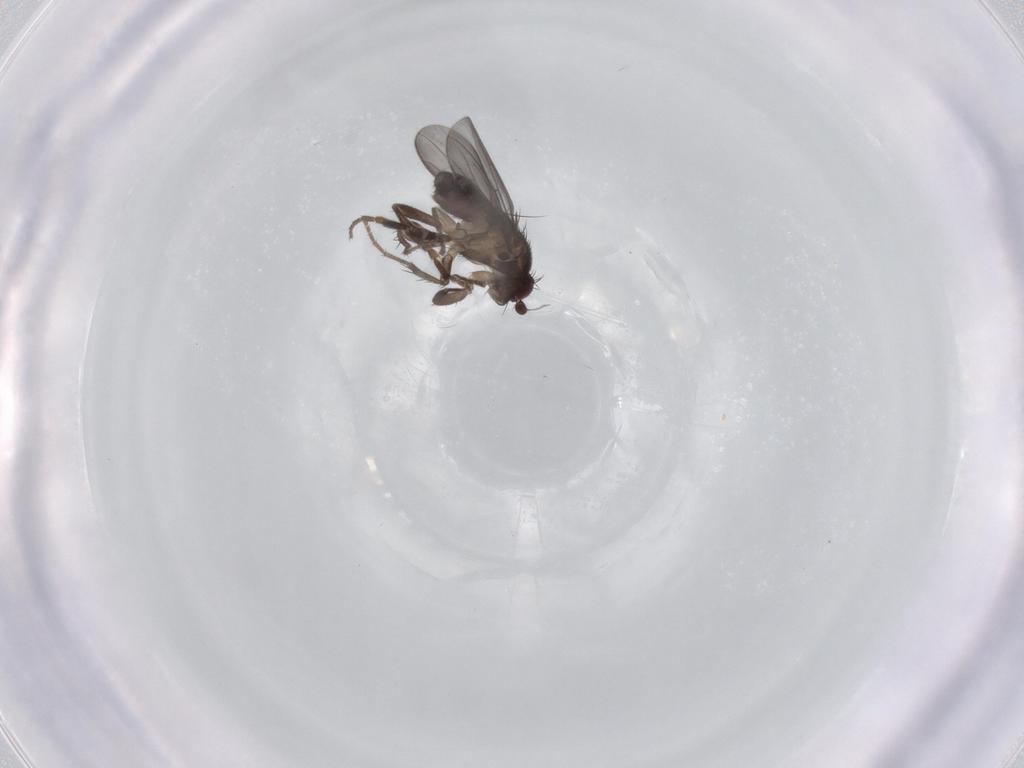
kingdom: Animalia
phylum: Arthropoda
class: Insecta
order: Diptera
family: Sphaeroceridae
